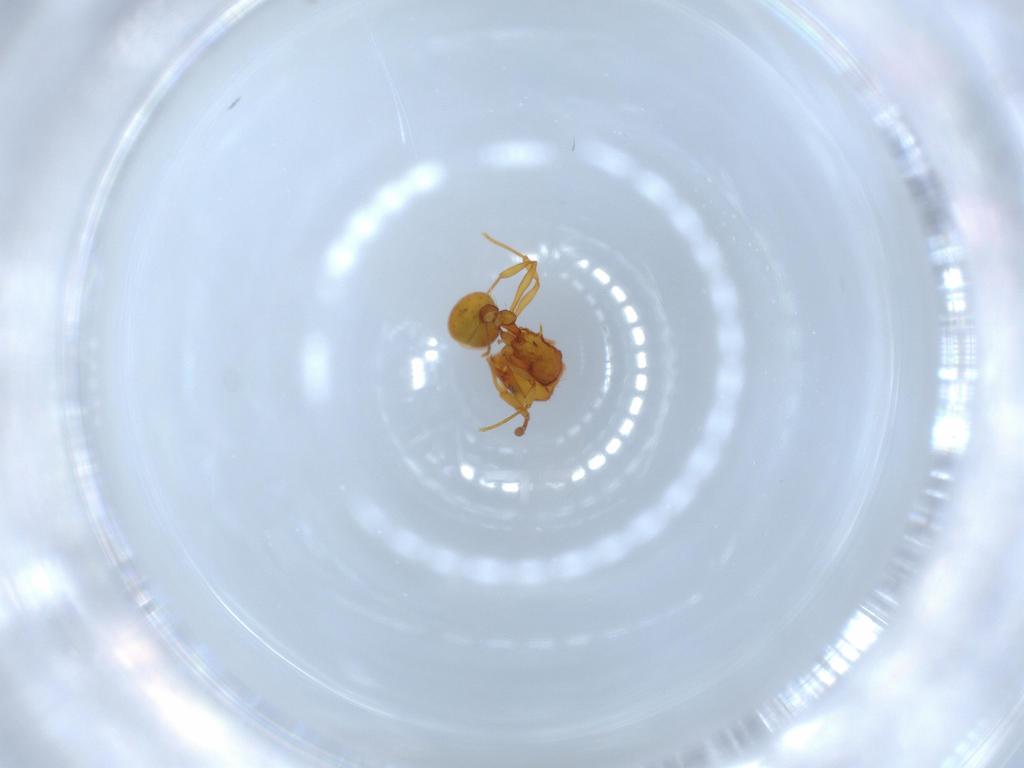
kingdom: Animalia
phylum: Arthropoda
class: Insecta
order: Hymenoptera
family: Formicidae
